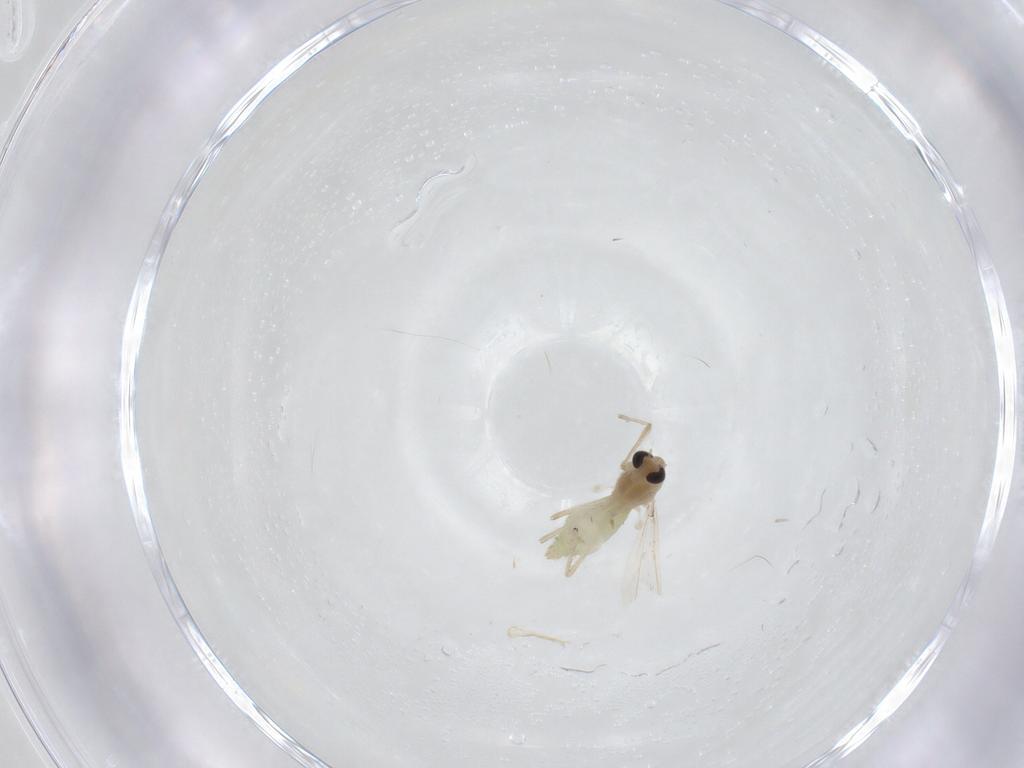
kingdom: Animalia
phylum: Arthropoda
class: Insecta
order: Diptera
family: Chironomidae
